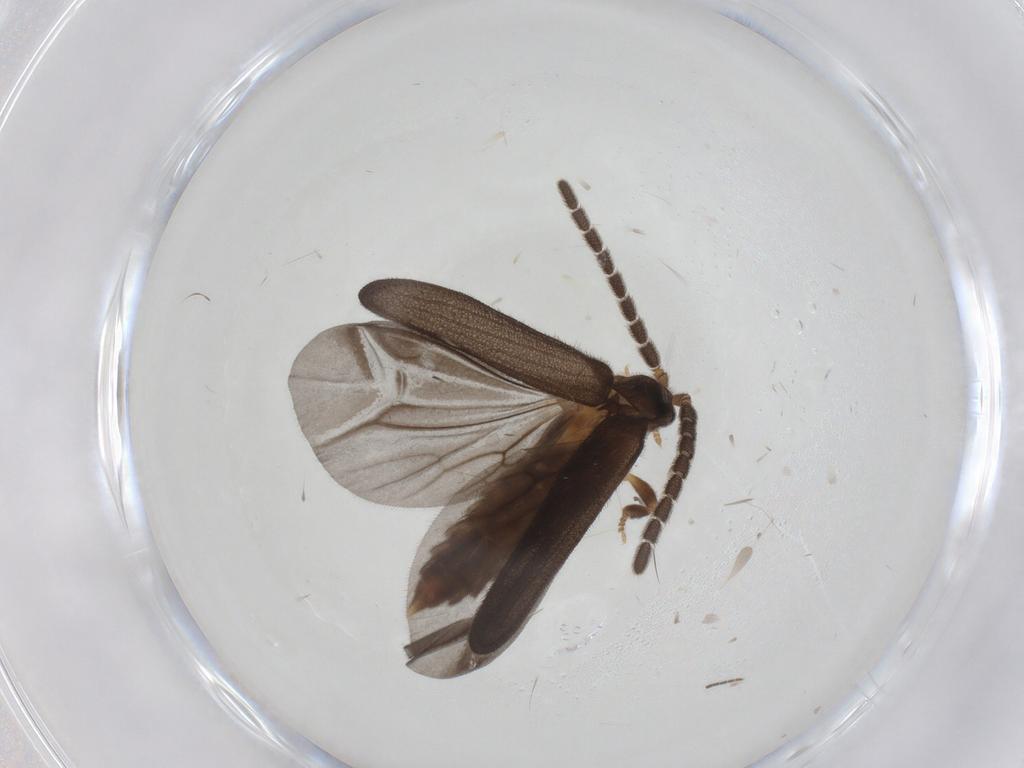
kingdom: Animalia
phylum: Arthropoda
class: Insecta
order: Coleoptera
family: Lycidae
